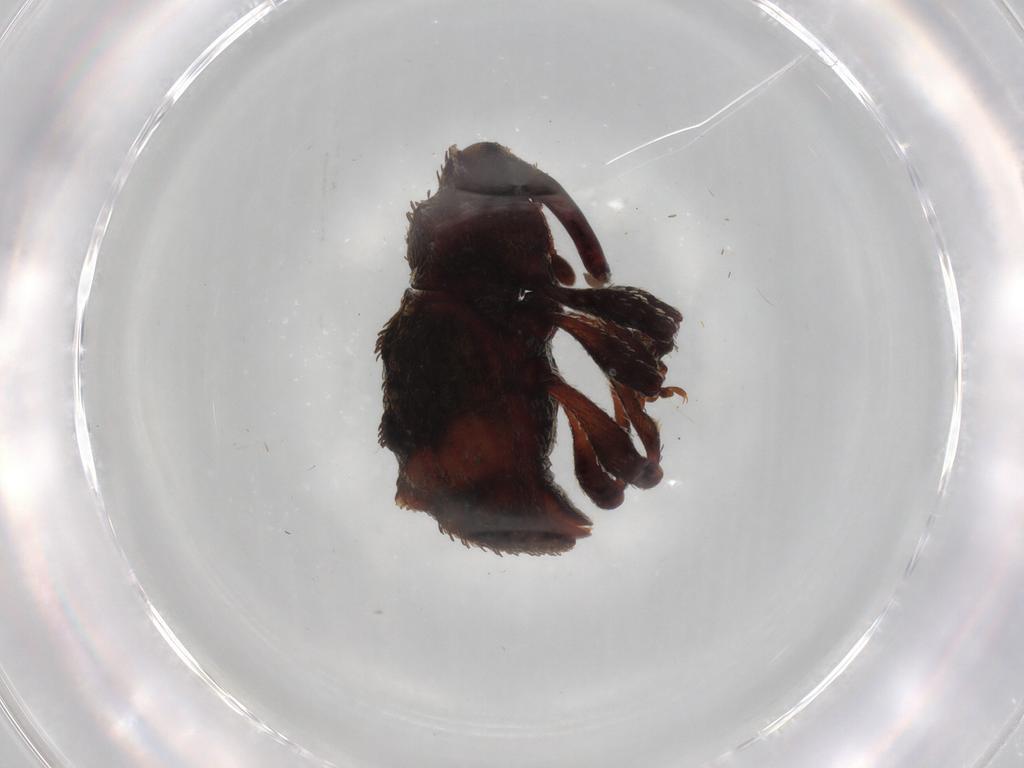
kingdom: Animalia
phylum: Arthropoda
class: Insecta
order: Coleoptera
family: Curculionidae
